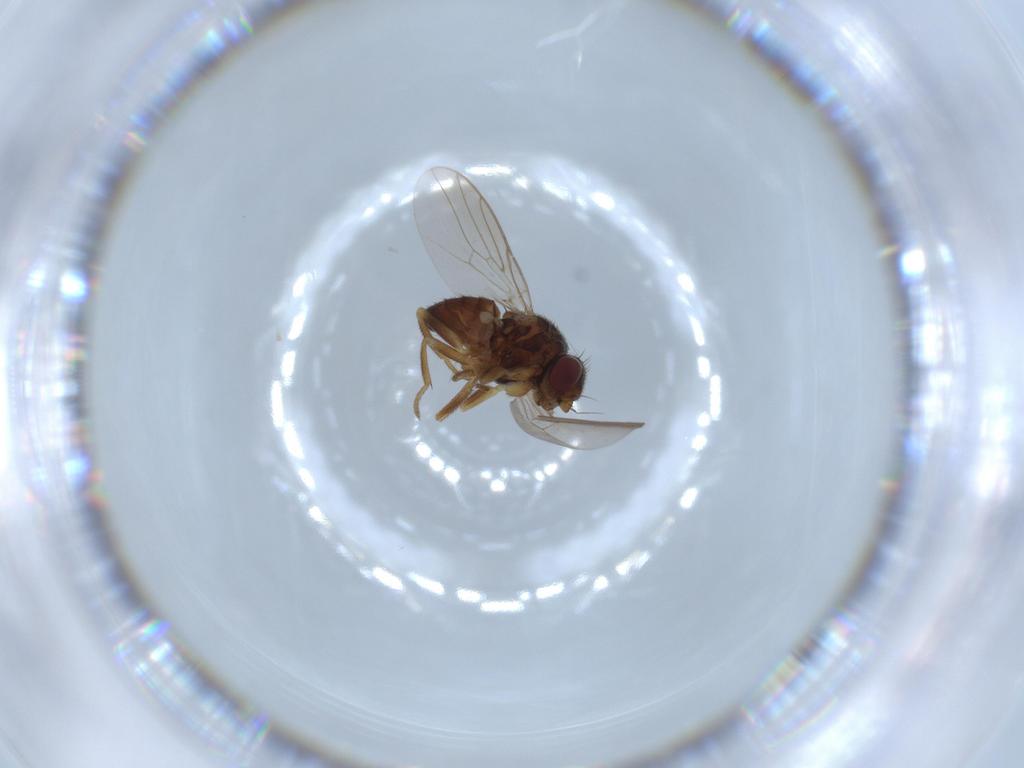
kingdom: Animalia
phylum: Arthropoda
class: Insecta
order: Diptera
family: Chloropidae
